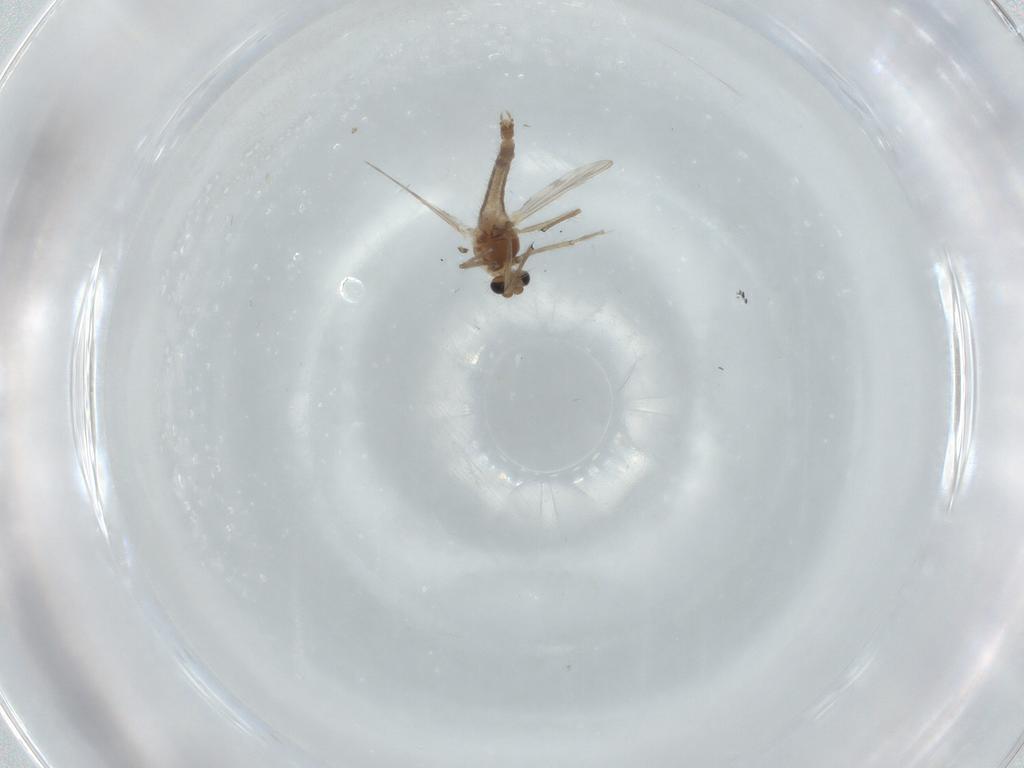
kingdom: Animalia
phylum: Arthropoda
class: Insecta
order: Diptera
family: Chironomidae
